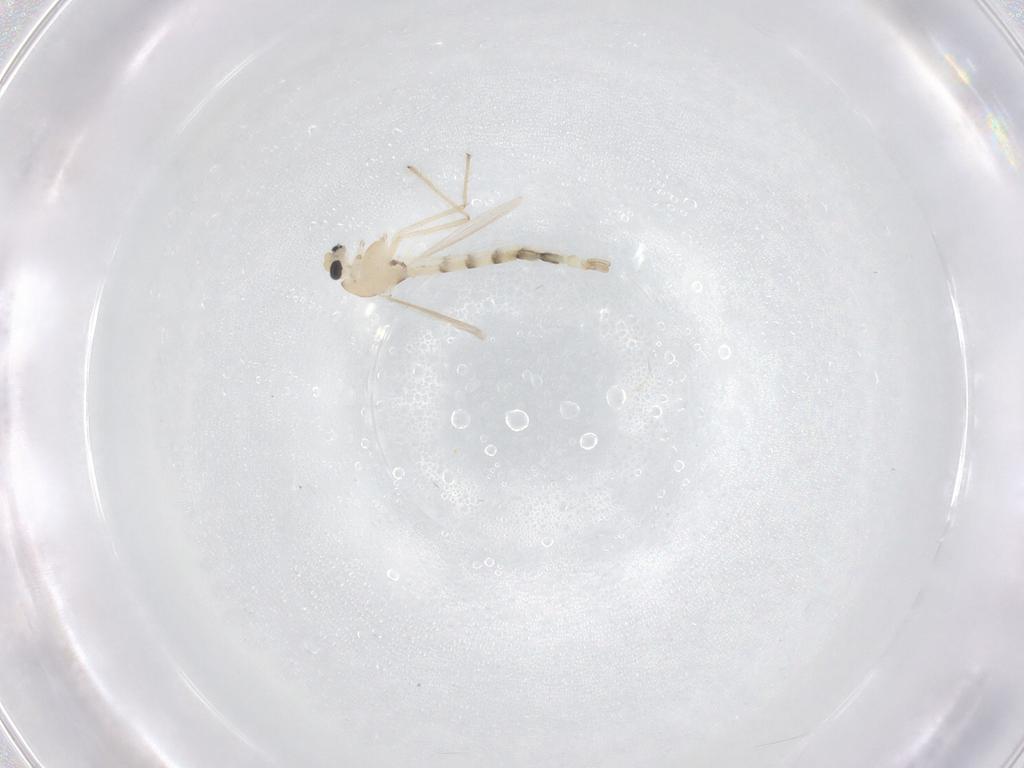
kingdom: Animalia
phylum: Arthropoda
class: Insecta
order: Diptera
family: Chironomidae
